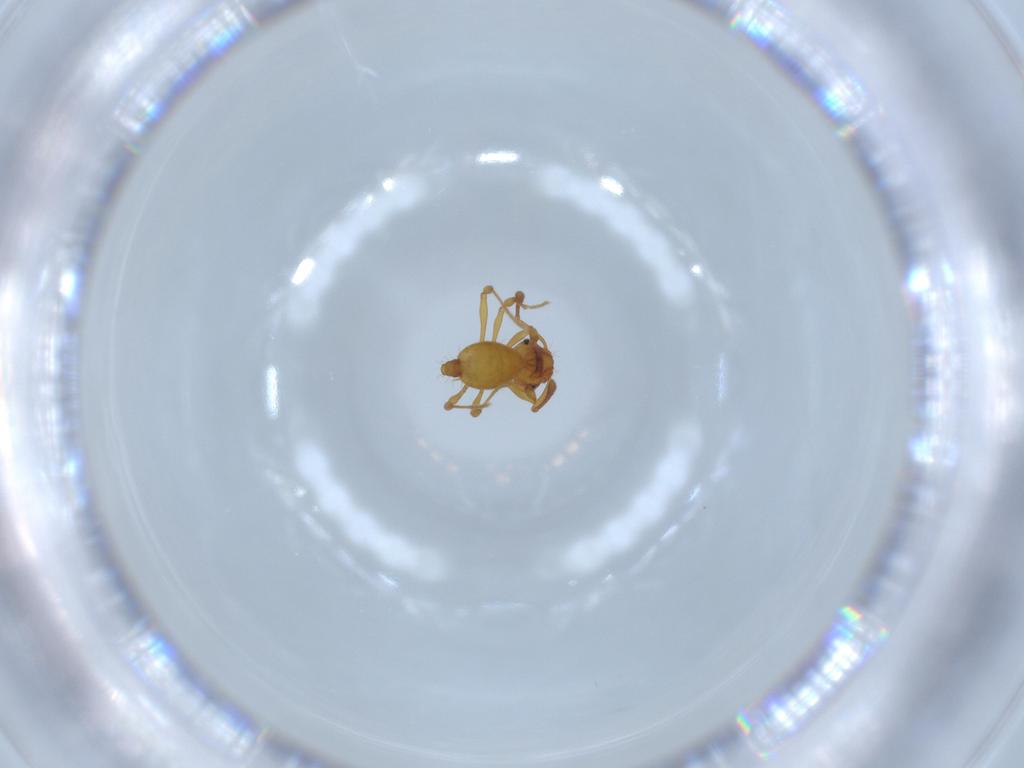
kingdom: Animalia
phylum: Arthropoda
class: Insecta
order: Hymenoptera
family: Formicidae
